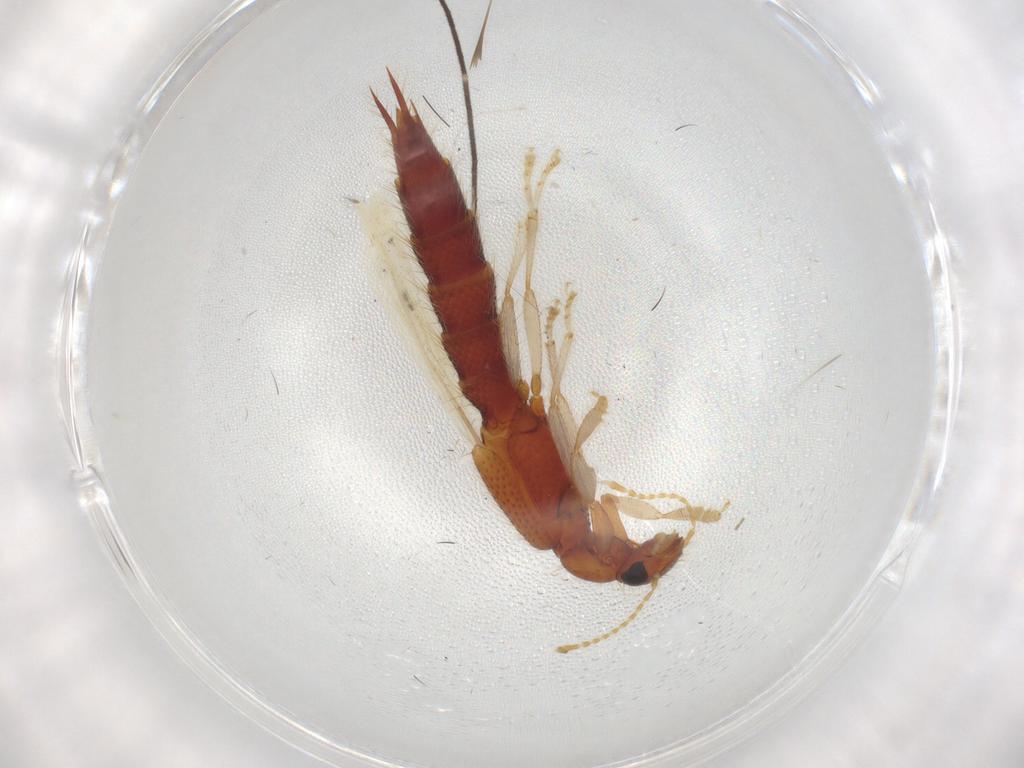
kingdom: Animalia
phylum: Arthropoda
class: Insecta
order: Coleoptera
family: Staphylinidae
